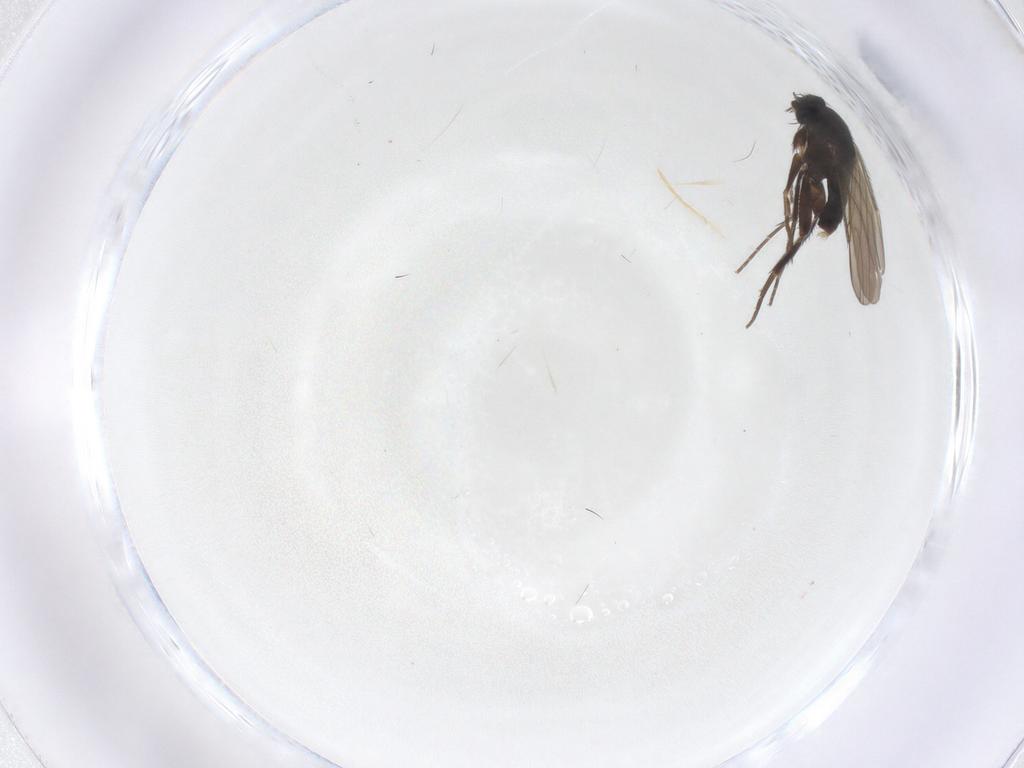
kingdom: Animalia
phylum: Arthropoda
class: Insecta
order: Diptera
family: Phoridae
